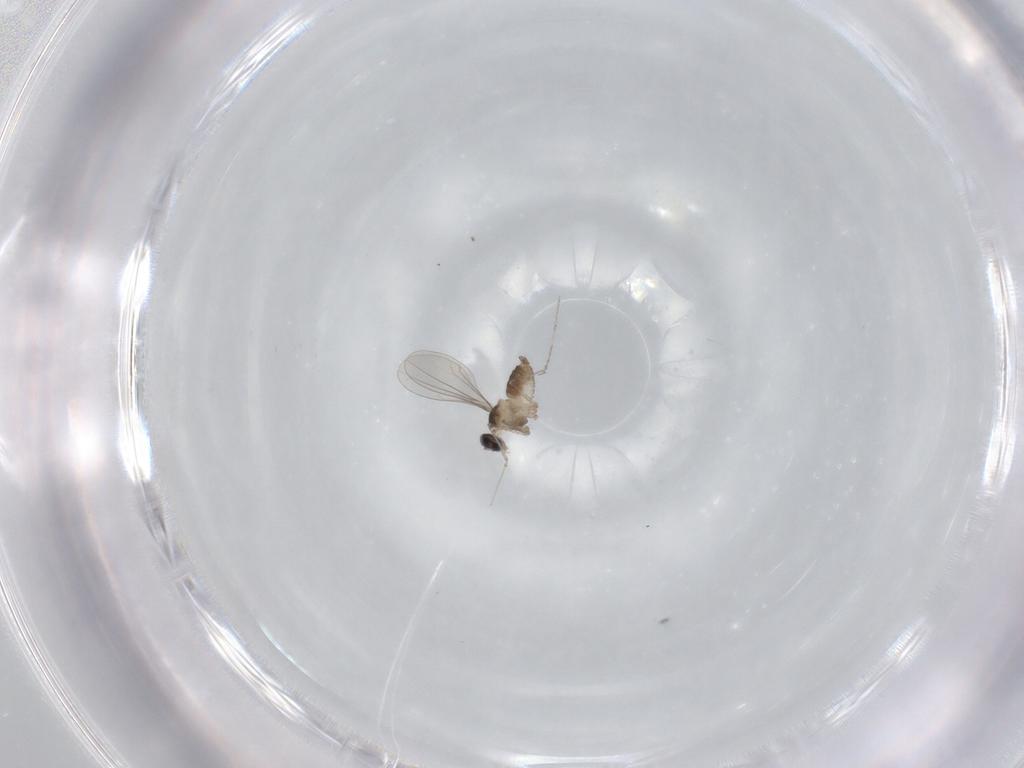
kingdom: Animalia
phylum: Arthropoda
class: Insecta
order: Diptera
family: Cecidomyiidae
